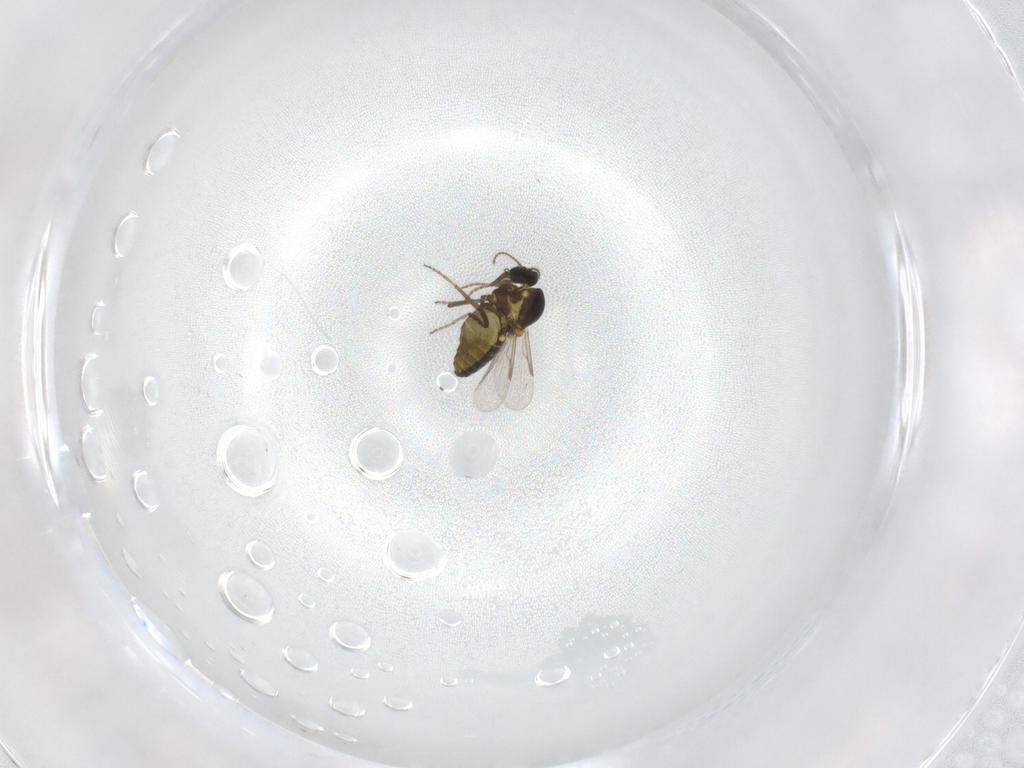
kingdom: Animalia
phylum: Arthropoda
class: Insecta
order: Diptera
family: Ceratopogonidae
